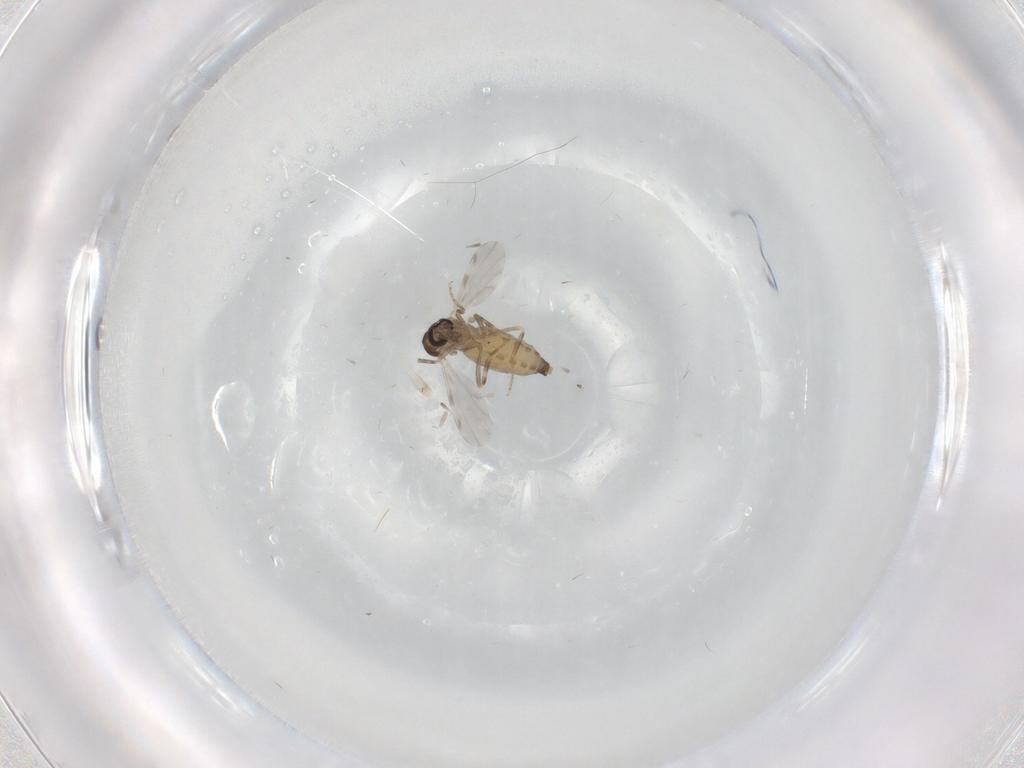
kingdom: Animalia
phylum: Arthropoda
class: Insecta
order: Diptera
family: Ceratopogonidae
